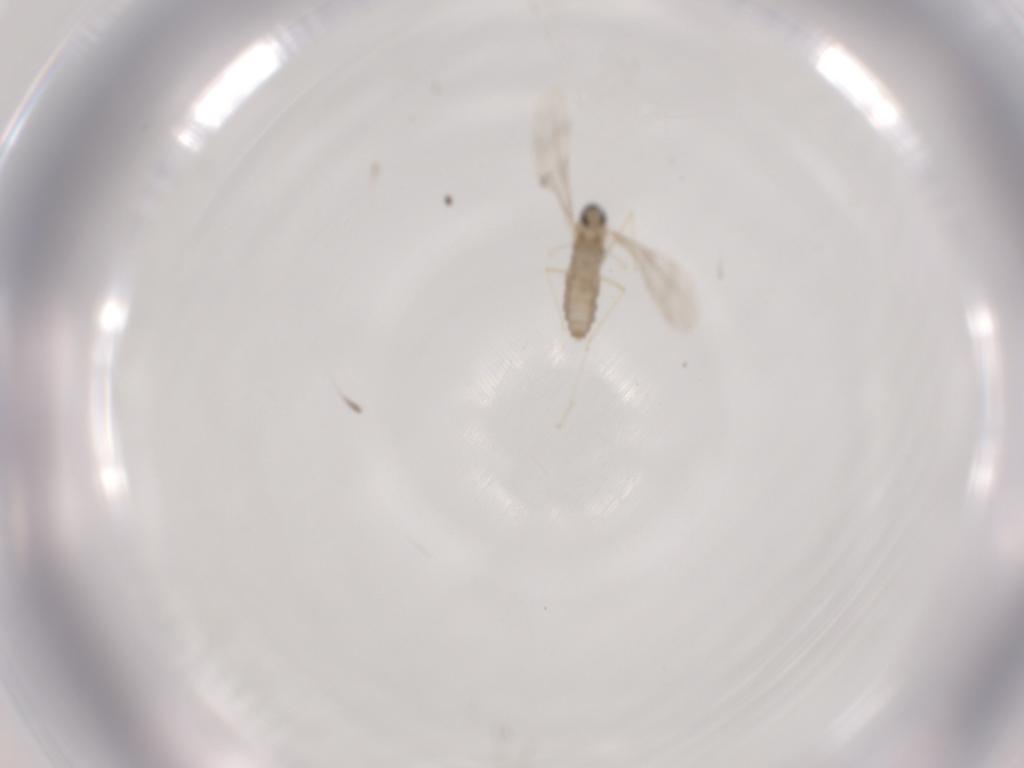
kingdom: Animalia
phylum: Arthropoda
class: Insecta
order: Diptera
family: Cecidomyiidae
